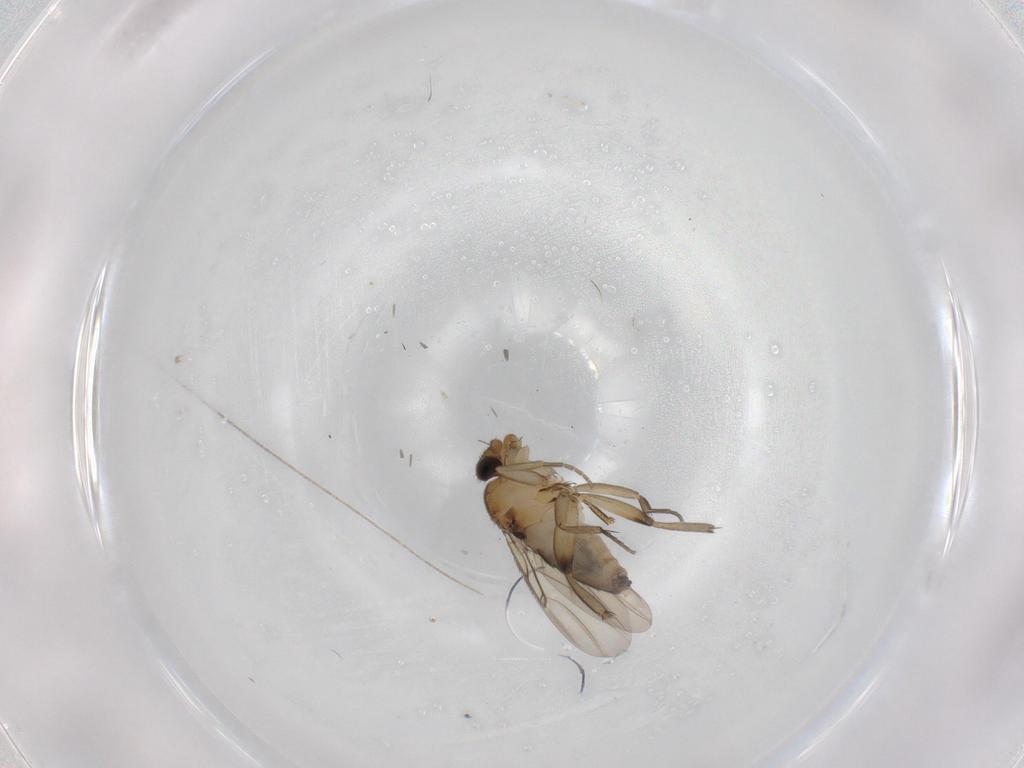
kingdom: Animalia
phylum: Arthropoda
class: Insecta
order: Diptera
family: Phoridae
